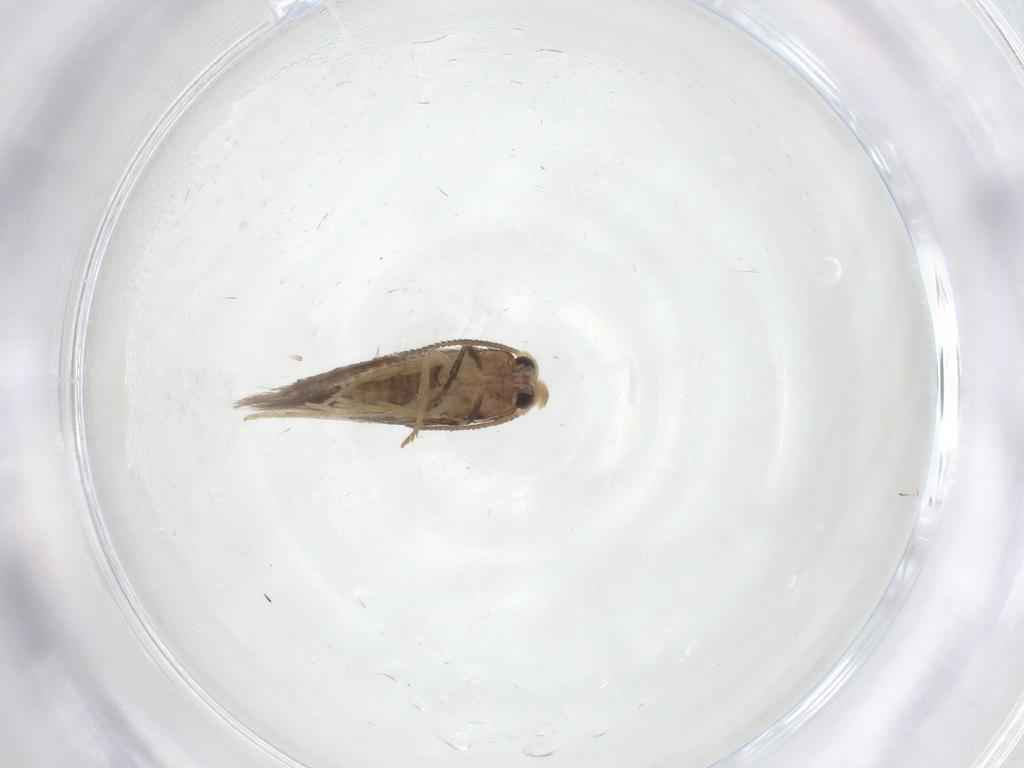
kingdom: Animalia
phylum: Arthropoda
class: Insecta
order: Lepidoptera
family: Nepticulidae
